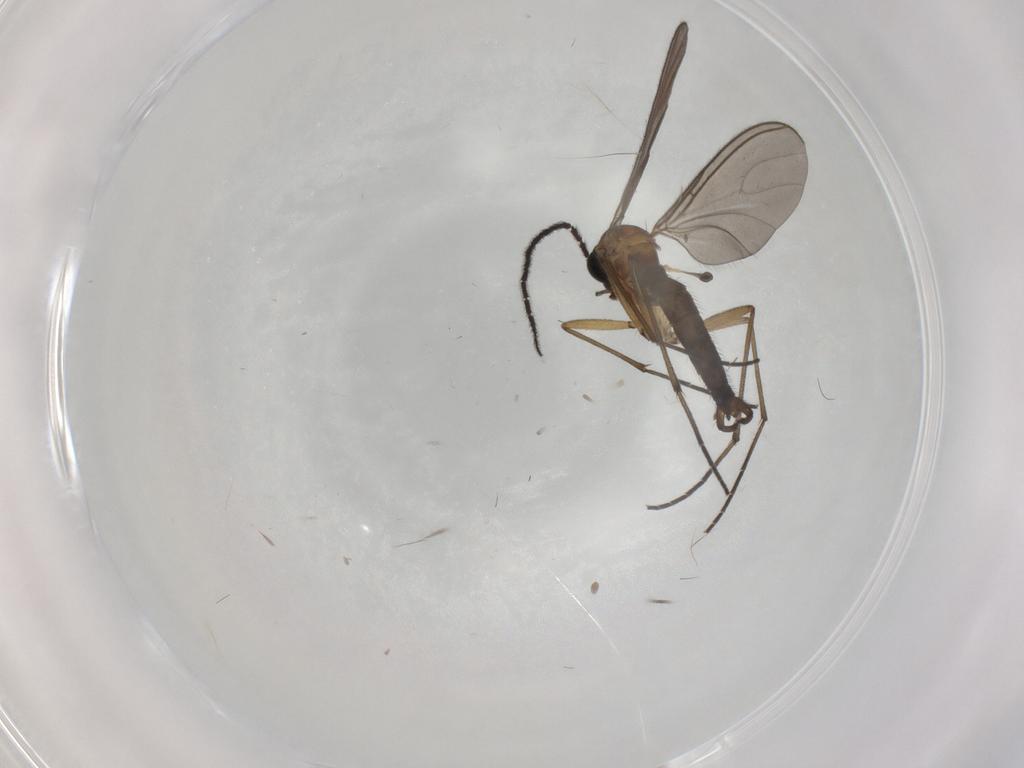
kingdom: Animalia
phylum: Arthropoda
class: Insecta
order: Diptera
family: Sciaridae
